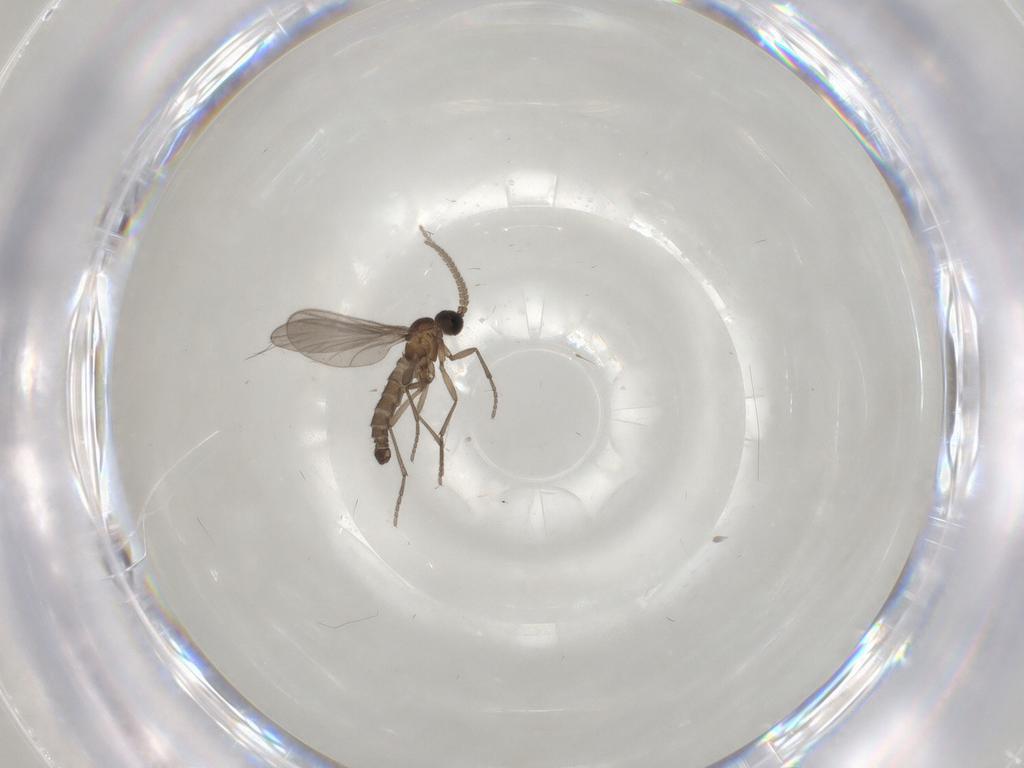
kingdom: Animalia
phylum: Arthropoda
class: Insecta
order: Diptera
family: Sciaridae
